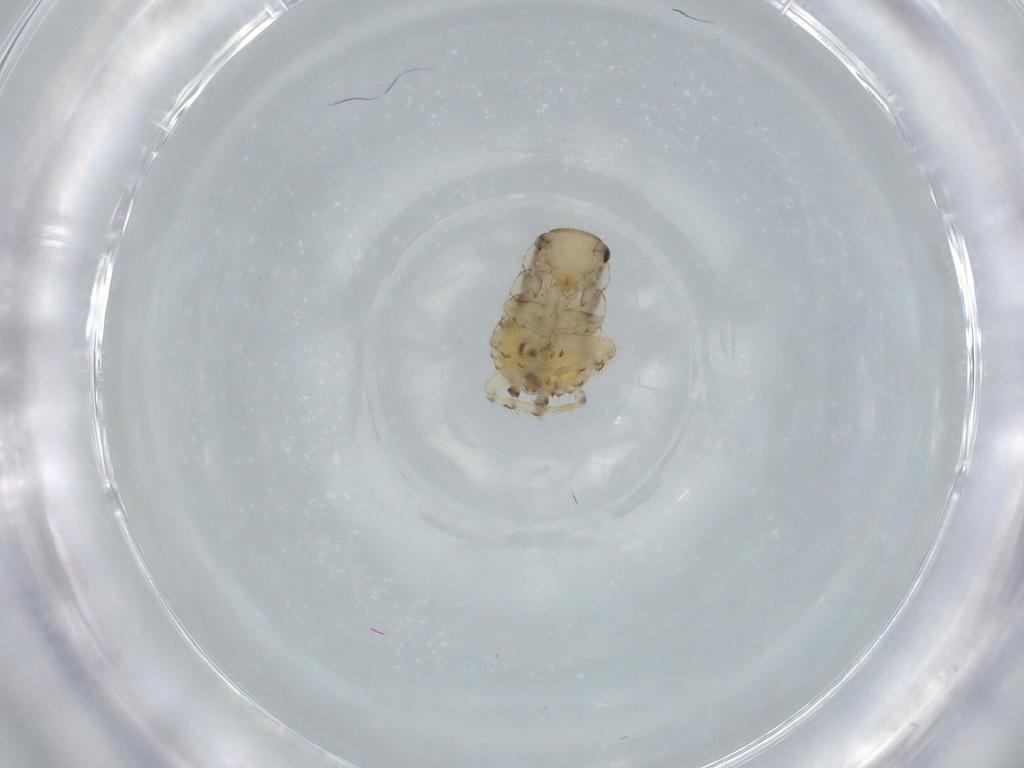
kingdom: Animalia
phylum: Arthropoda
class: Insecta
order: Blattodea
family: Ectobiidae
